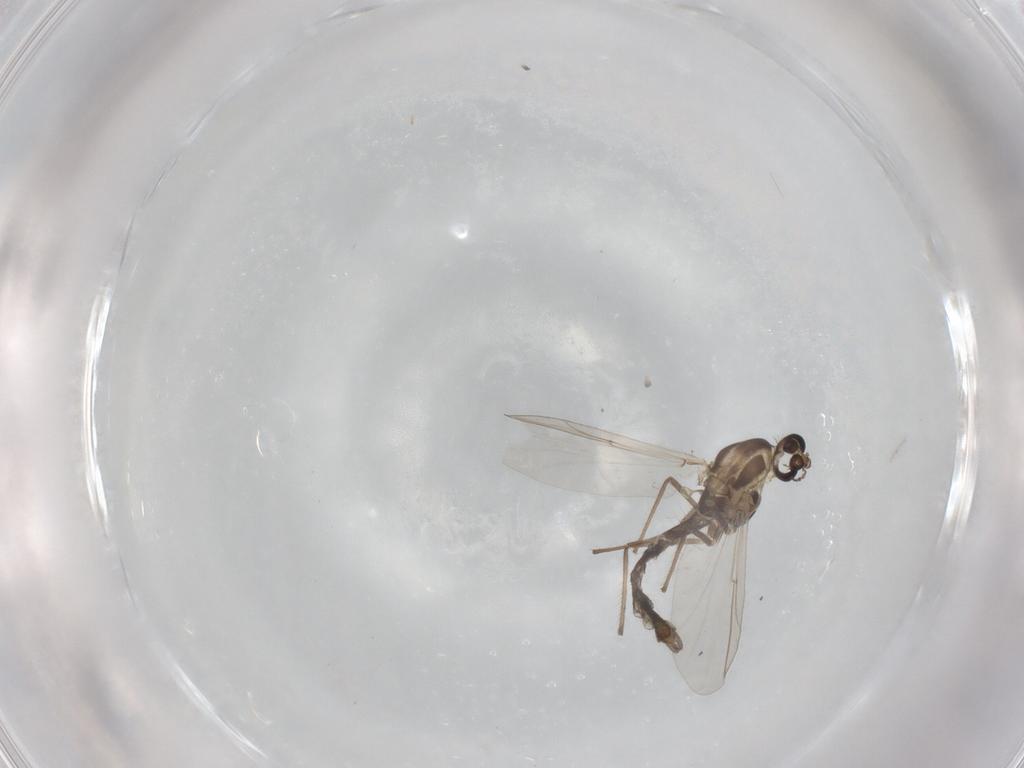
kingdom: Animalia
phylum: Arthropoda
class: Insecta
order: Diptera
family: Chironomidae
